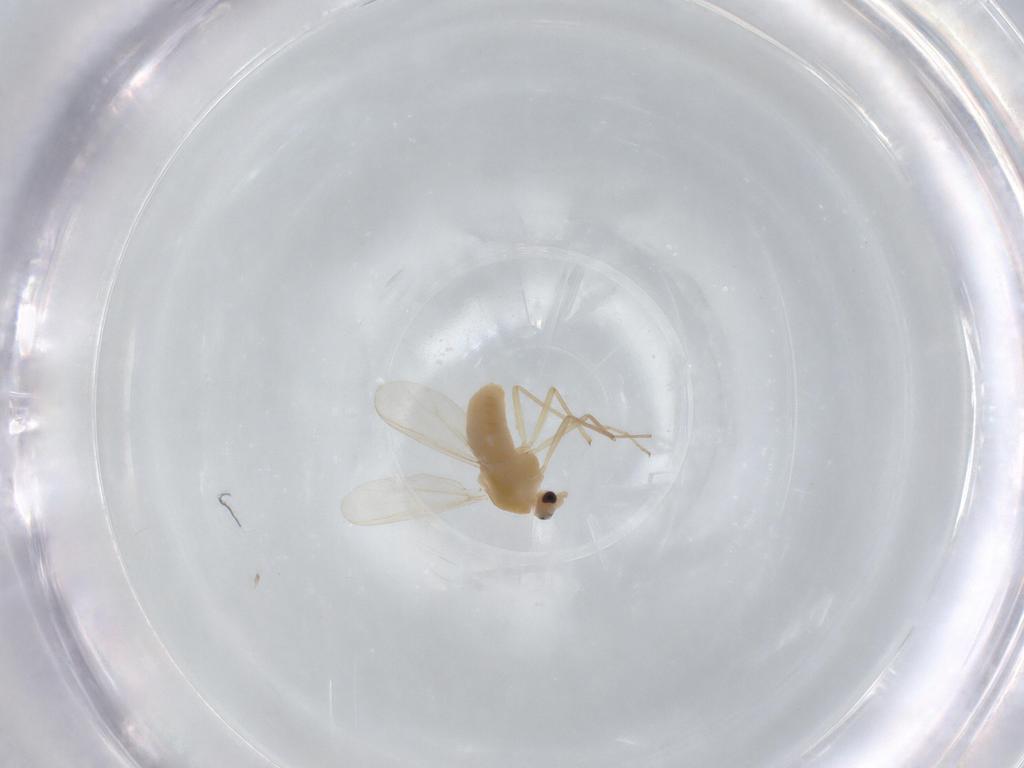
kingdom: Animalia
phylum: Arthropoda
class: Insecta
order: Diptera
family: Chironomidae
